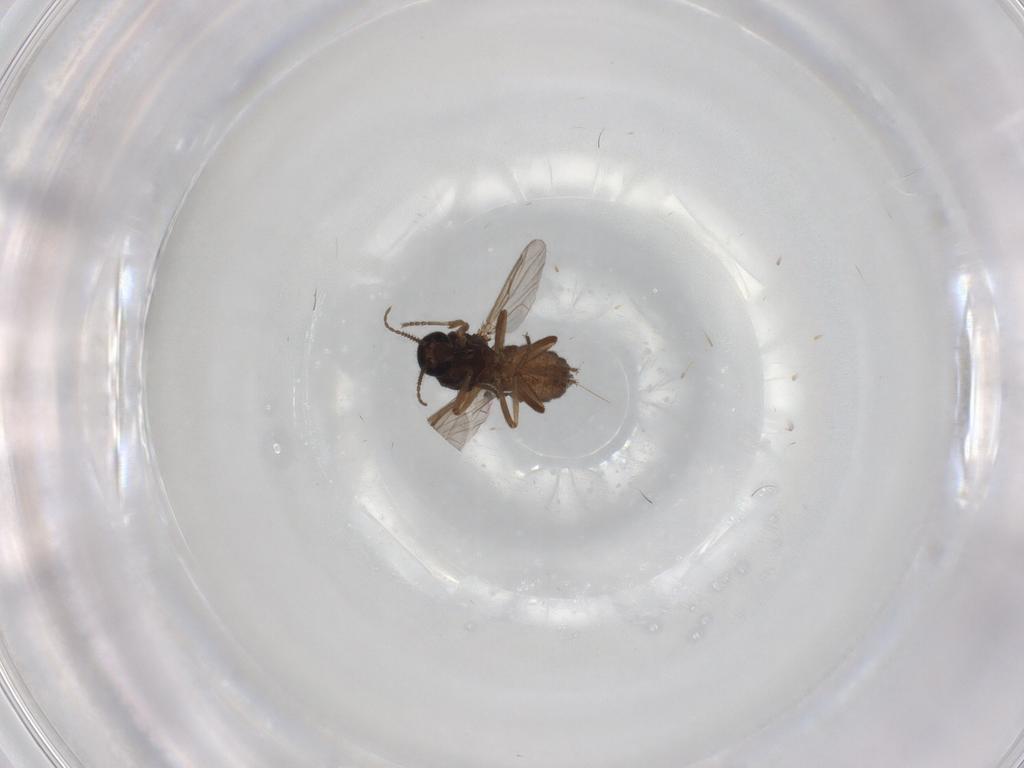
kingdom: Animalia
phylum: Arthropoda
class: Insecta
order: Diptera
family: Ceratopogonidae
